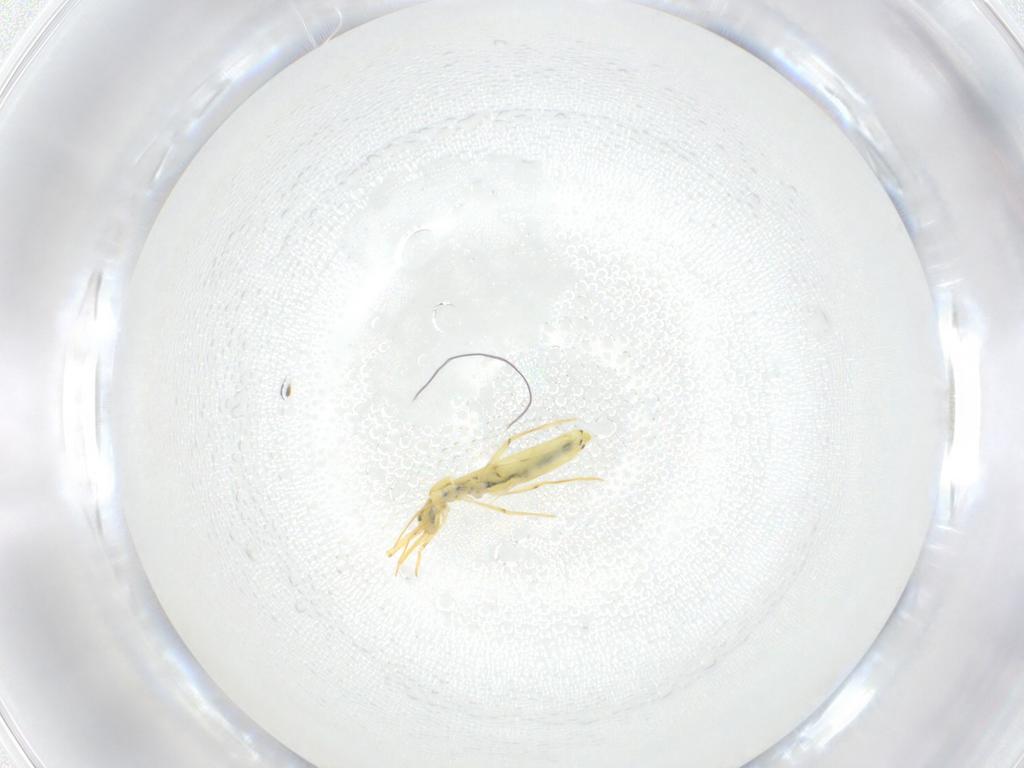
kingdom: Animalia
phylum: Arthropoda
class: Collembola
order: Entomobryomorpha
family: Entomobryidae
